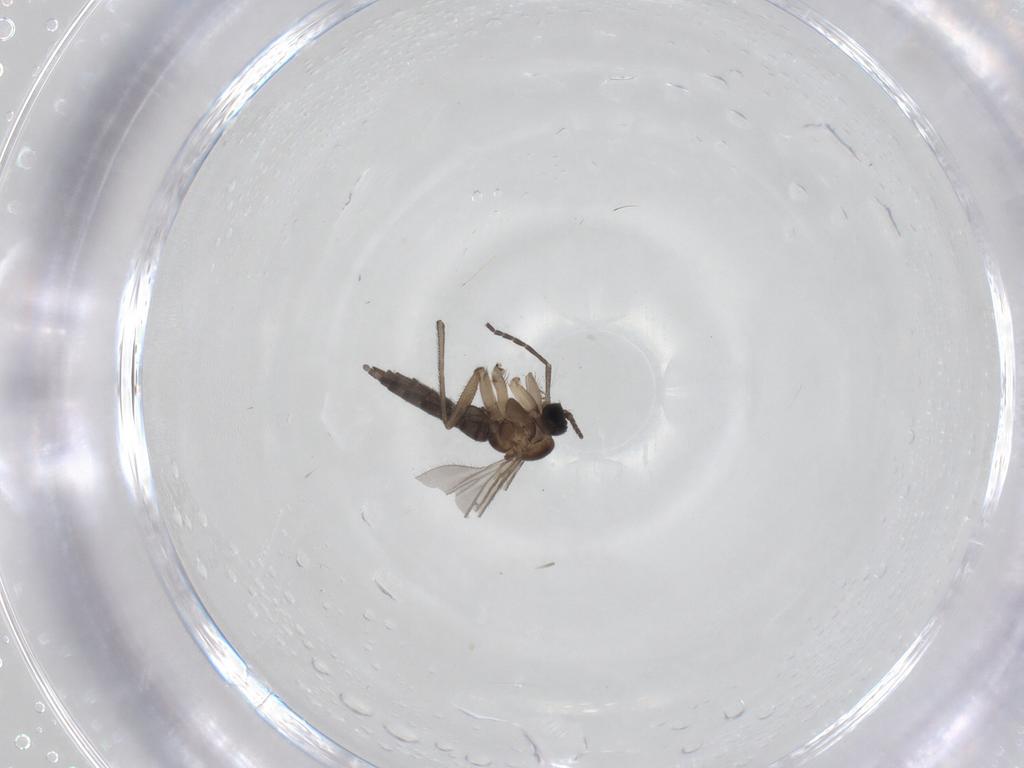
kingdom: Animalia
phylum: Arthropoda
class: Insecta
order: Diptera
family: Sciaridae
